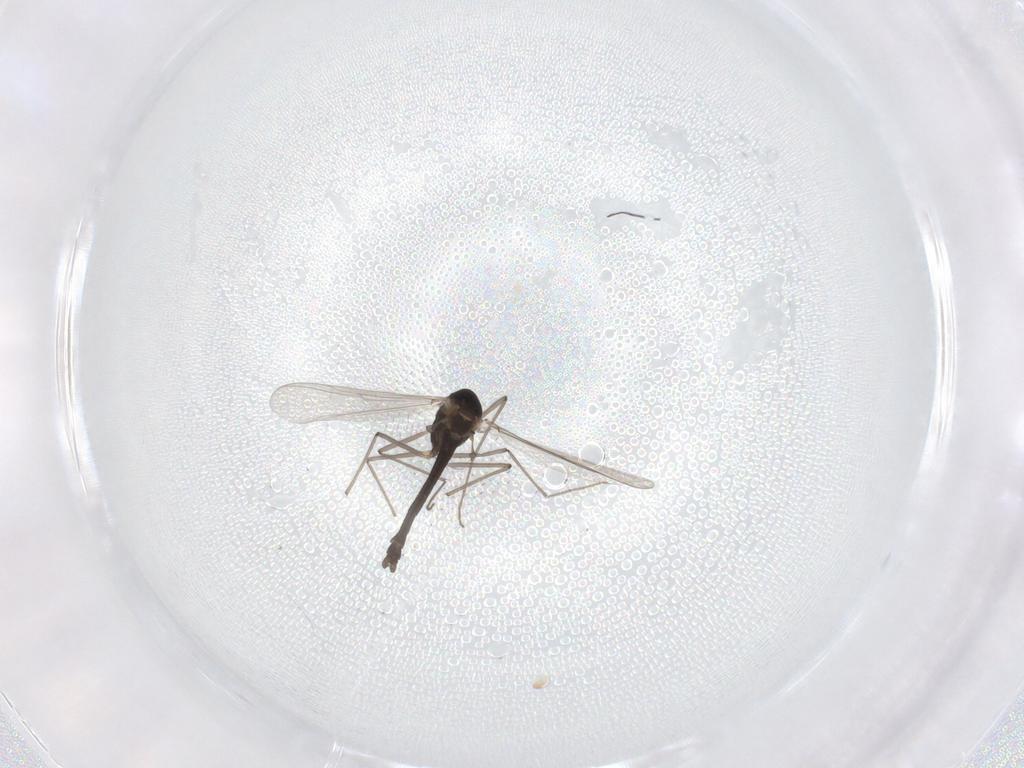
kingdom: Animalia
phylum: Arthropoda
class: Insecta
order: Diptera
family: Chironomidae
